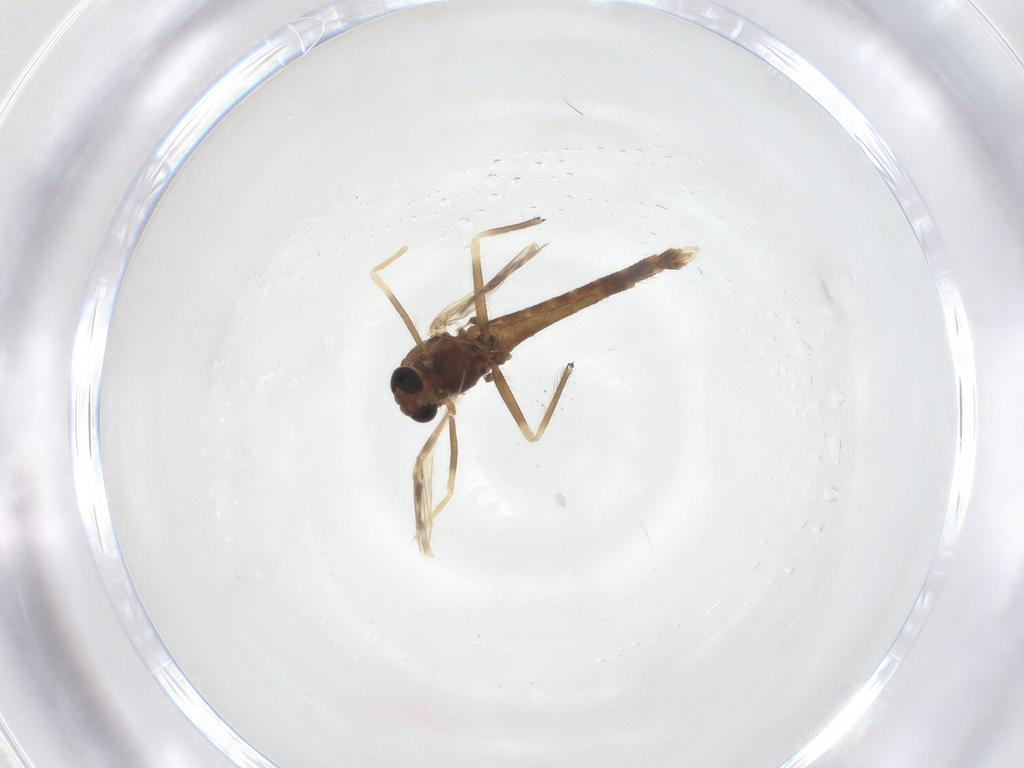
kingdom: Animalia
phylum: Arthropoda
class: Insecta
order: Diptera
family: Chironomidae
